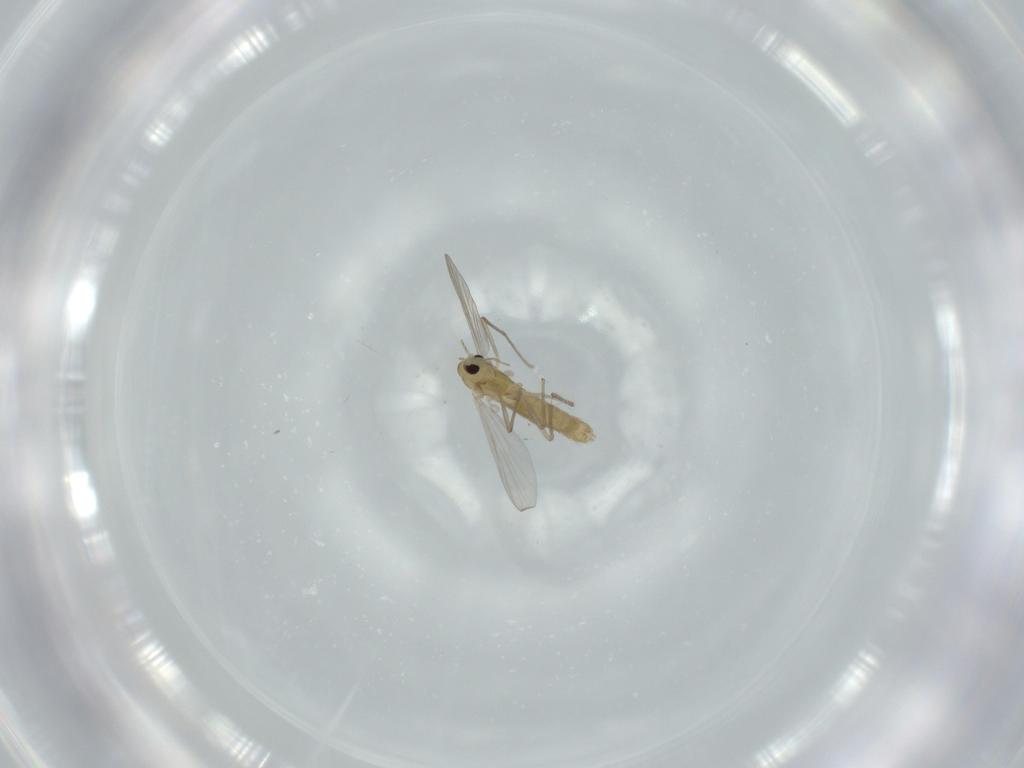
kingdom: Animalia
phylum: Arthropoda
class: Insecta
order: Diptera
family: Chironomidae
